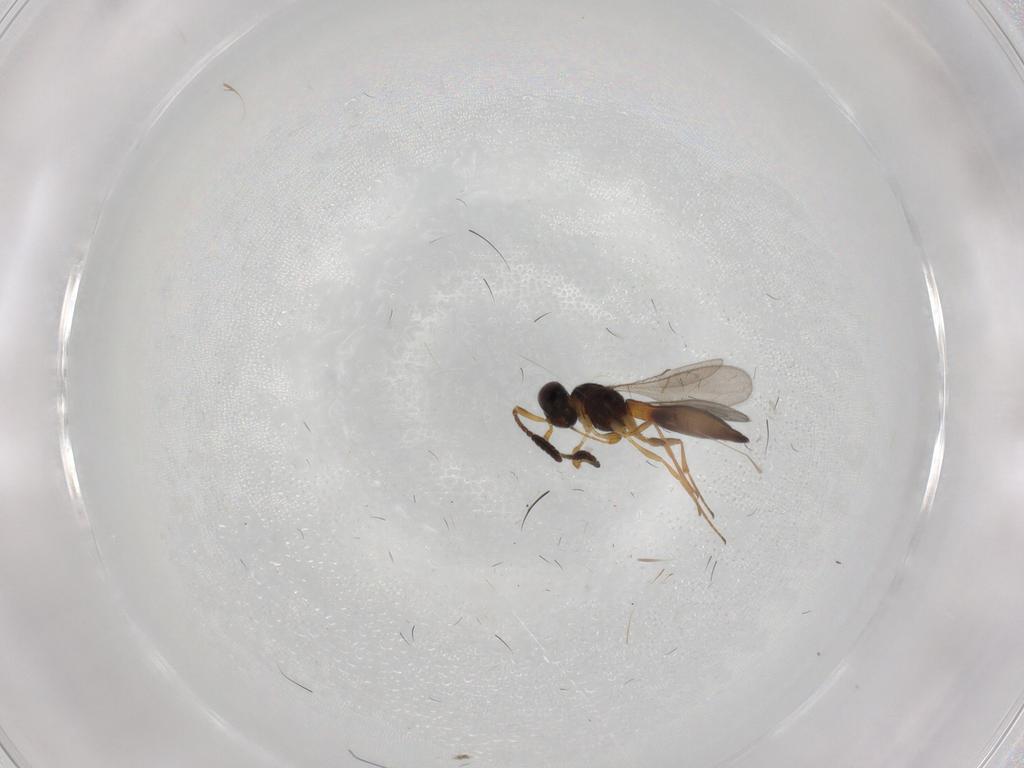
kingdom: Animalia
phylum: Arthropoda
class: Insecta
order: Hymenoptera
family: Scelionidae
